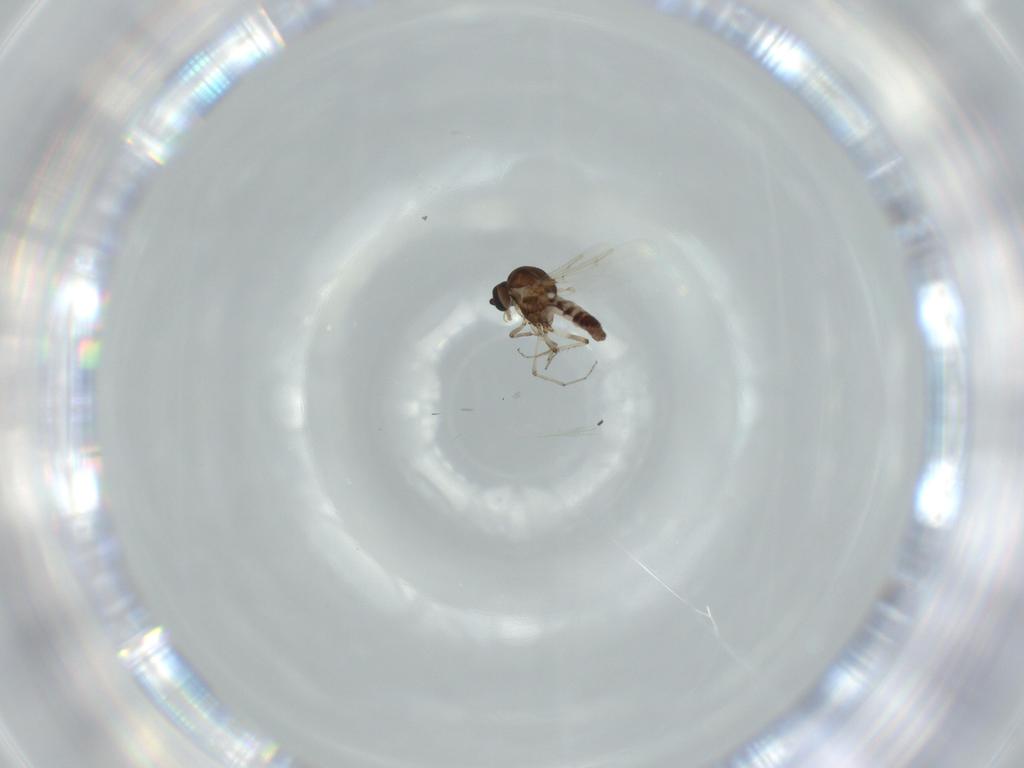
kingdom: Animalia
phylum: Arthropoda
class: Insecta
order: Diptera
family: Ceratopogonidae
